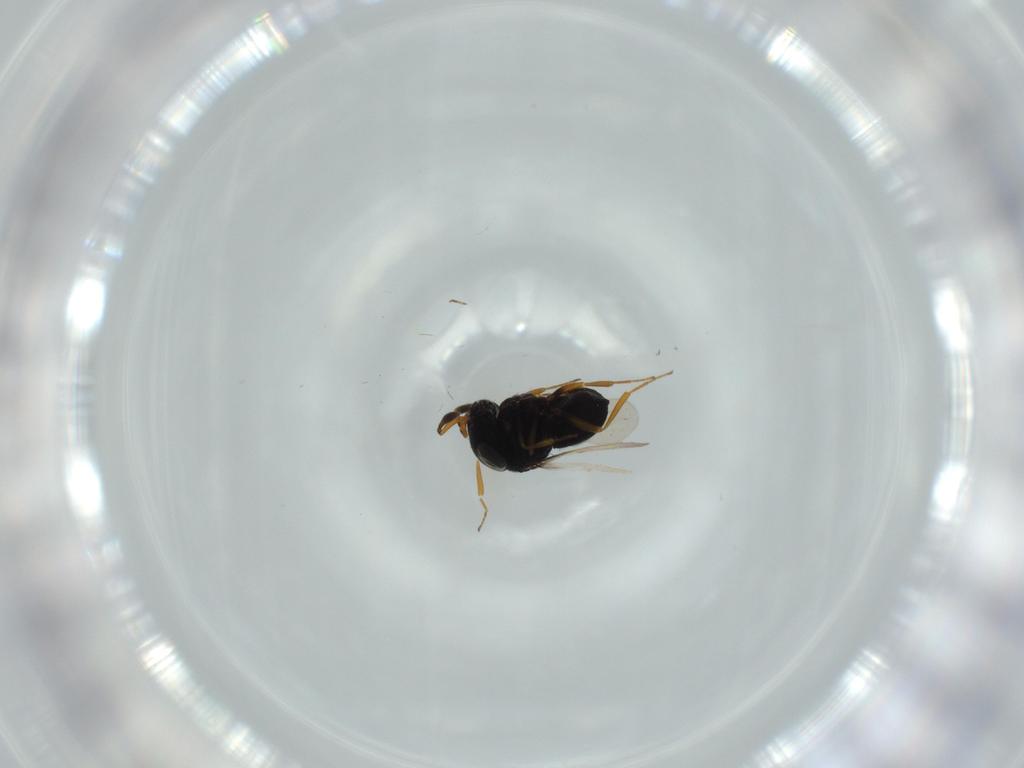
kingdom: Animalia
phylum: Arthropoda
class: Insecta
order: Hymenoptera
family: Scelionidae
